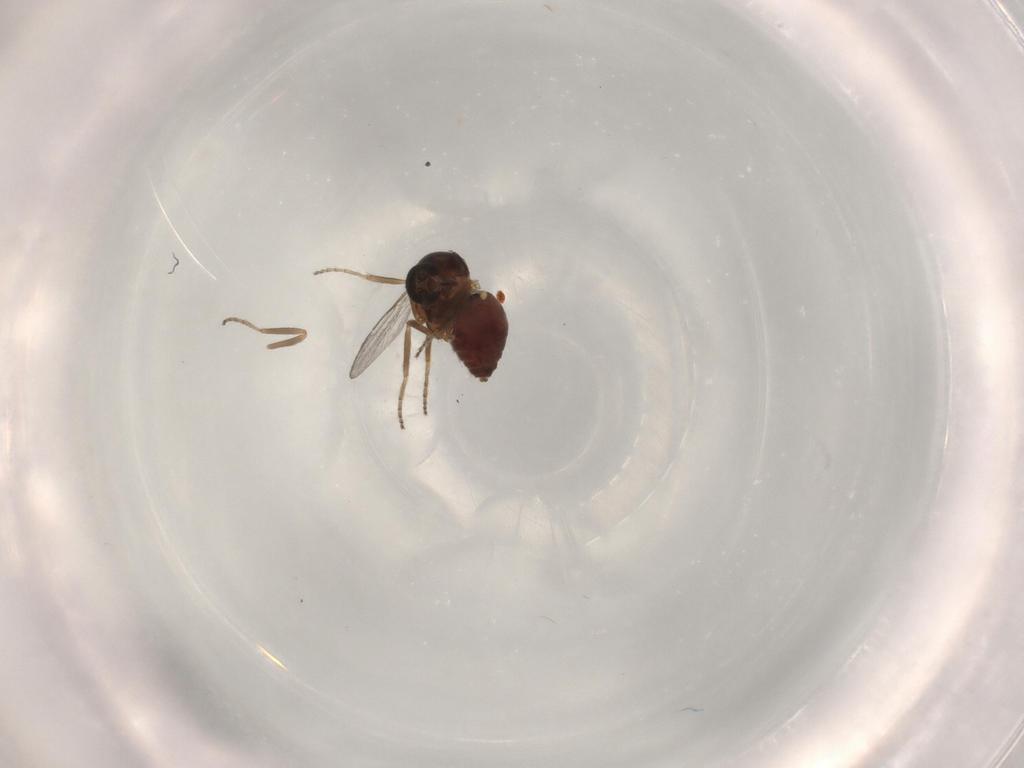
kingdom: Animalia
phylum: Arthropoda
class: Insecta
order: Diptera
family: Ceratopogonidae
